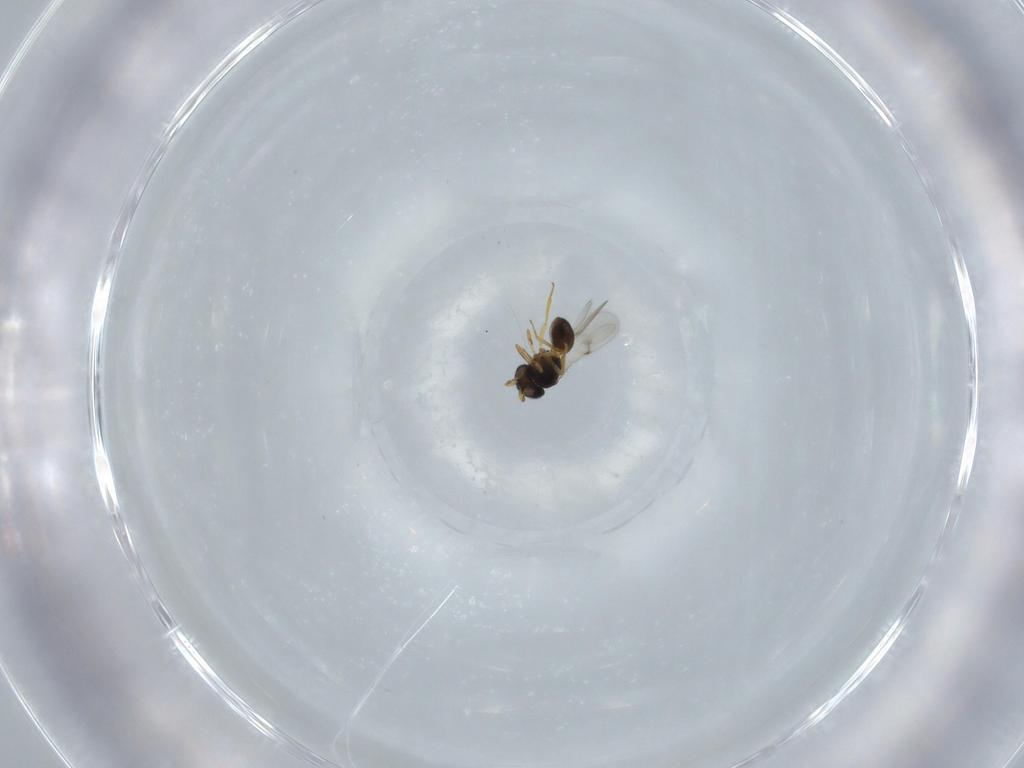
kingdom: Animalia
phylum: Arthropoda
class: Insecta
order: Hymenoptera
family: Scelionidae
